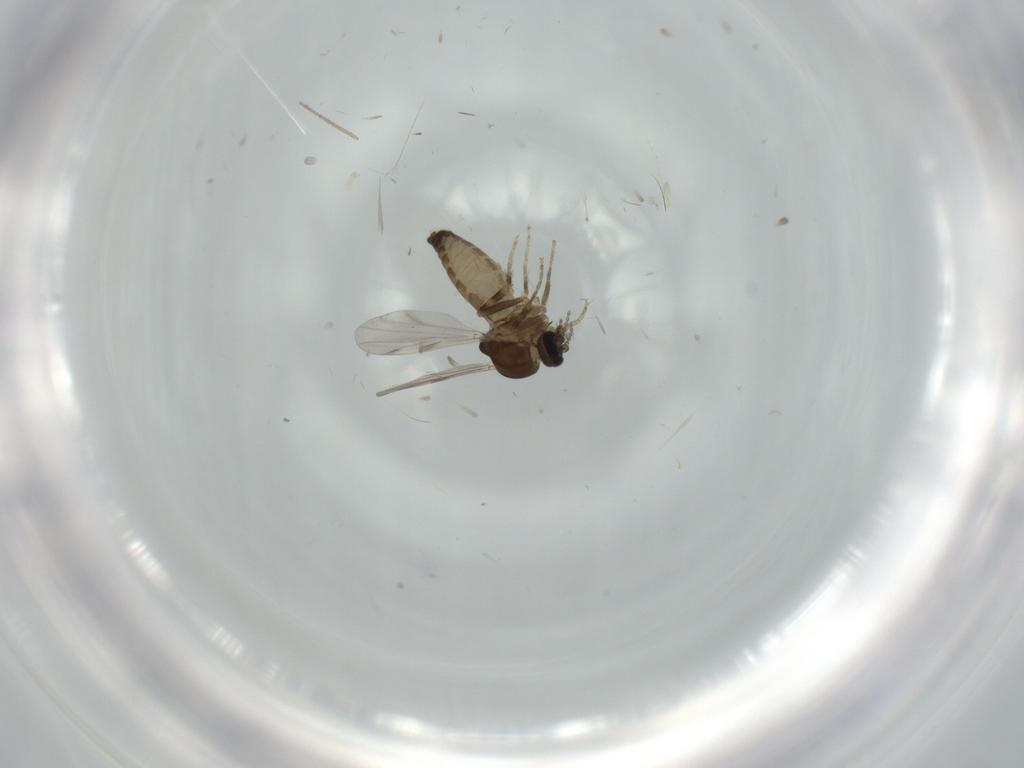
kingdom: Animalia
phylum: Arthropoda
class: Insecta
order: Diptera
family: Ceratopogonidae
